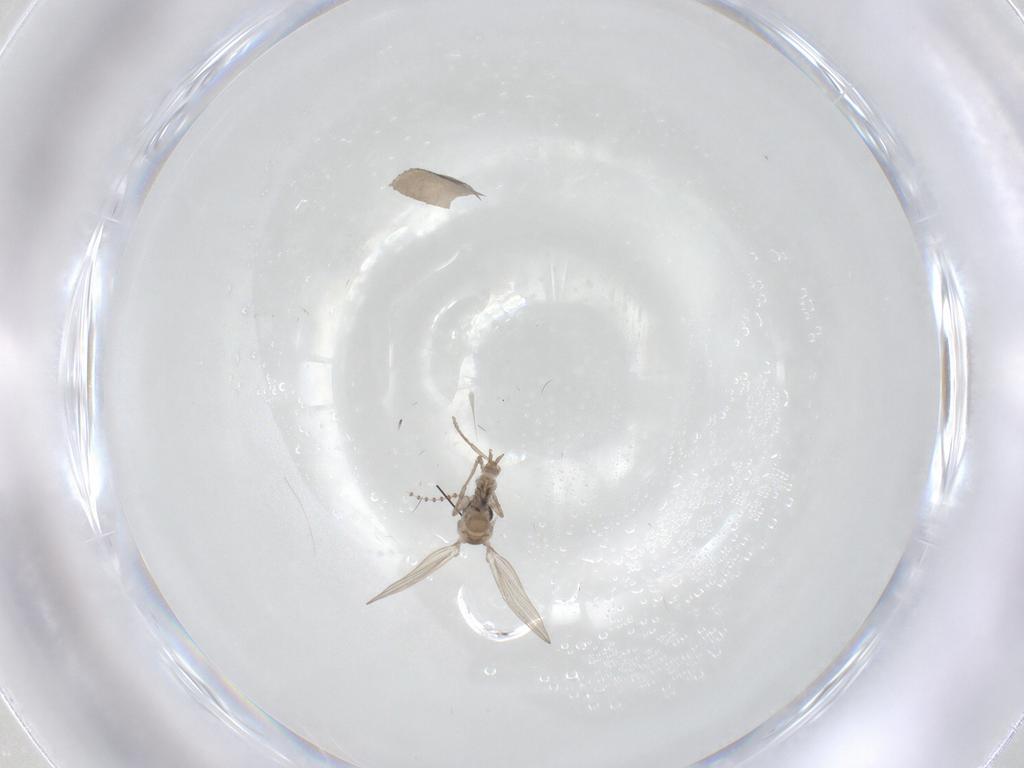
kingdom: Animalia
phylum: Arthropoda
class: Insecta
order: Diptera
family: Psychodidae
